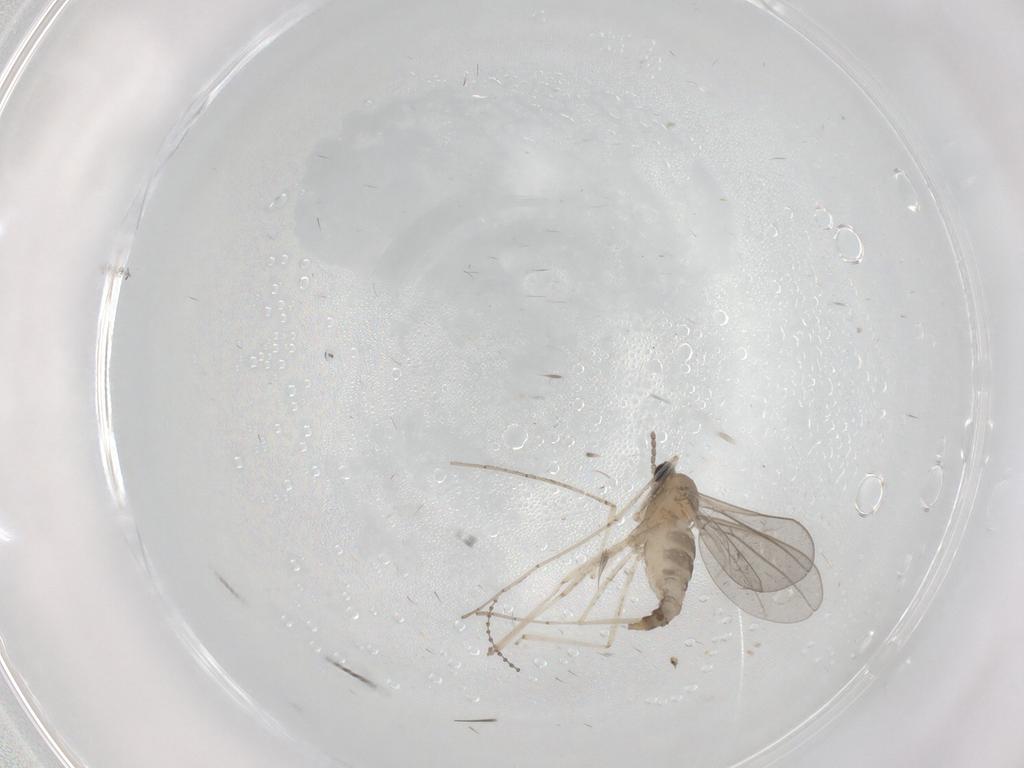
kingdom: Animalia
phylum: Arthropoda
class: Insecta
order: Diptera
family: Cecidomyiidae
